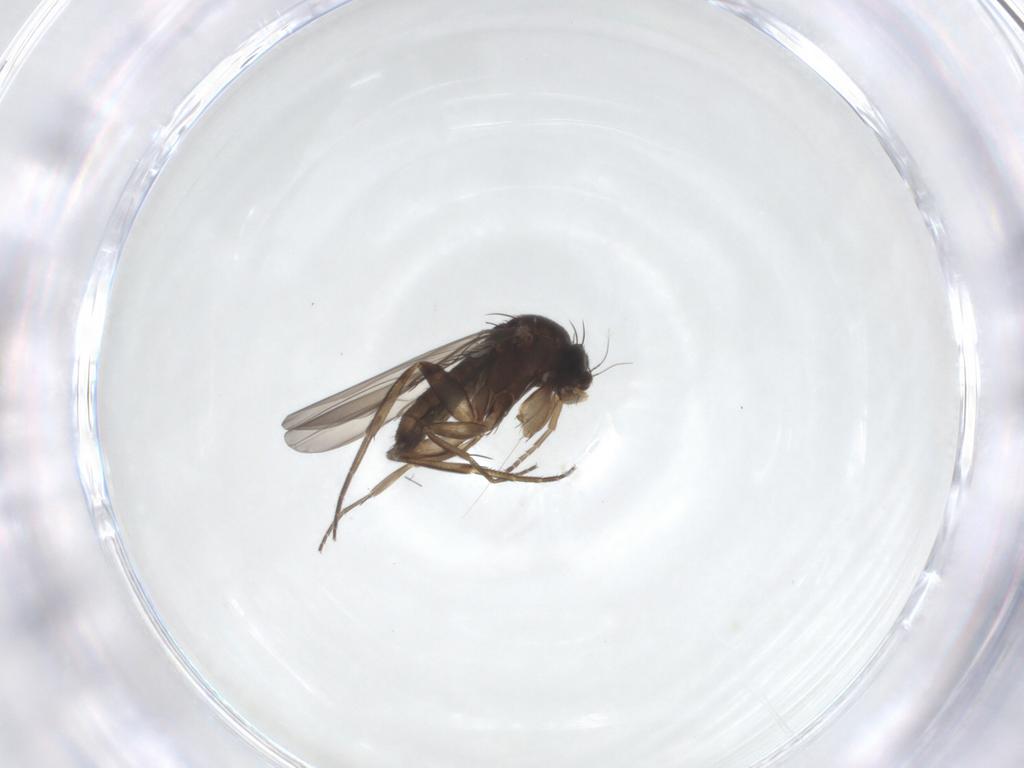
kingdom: Animalia
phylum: Arthropoda
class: Insecta
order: Diptera
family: Phoridae
